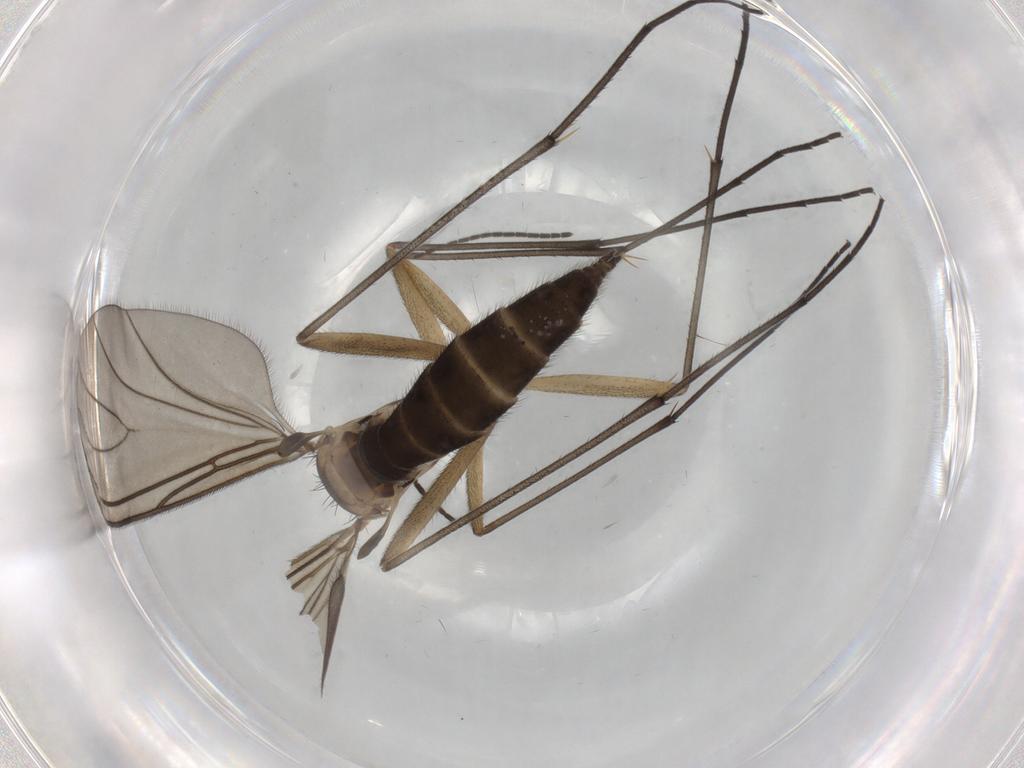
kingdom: Animalia
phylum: Arthropoda
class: Insecta
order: Diptera
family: Sciaridae
